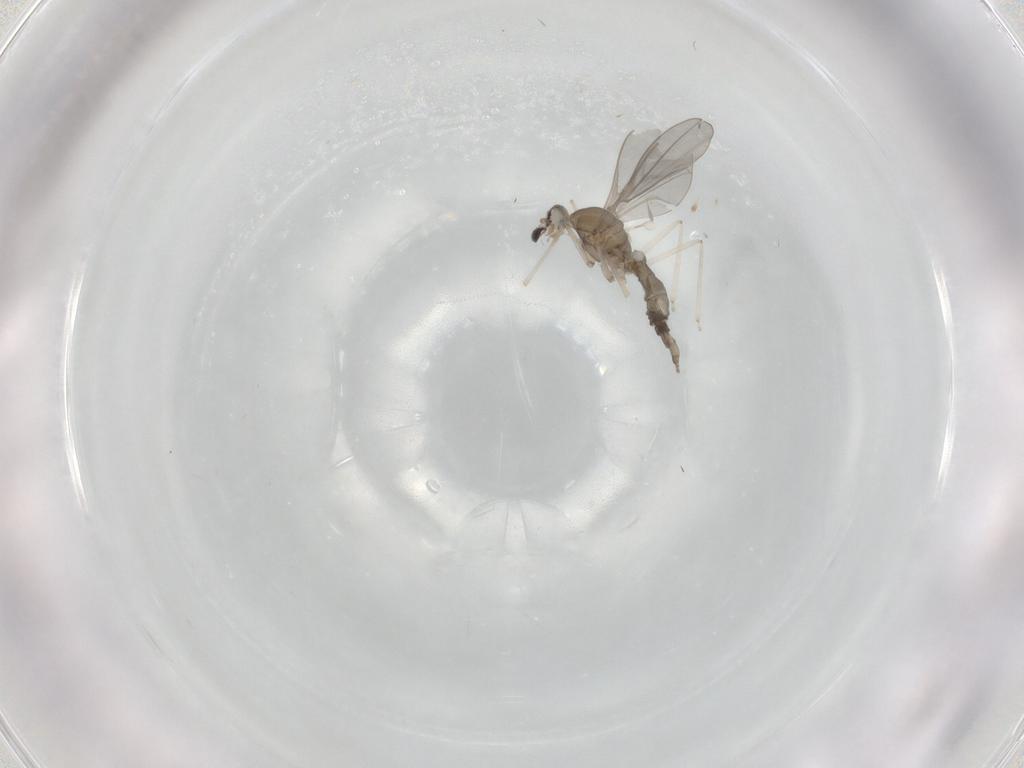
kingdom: Animalia
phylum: Arthropoda
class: Insecta
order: Diptera
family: Cecidomyiidae
